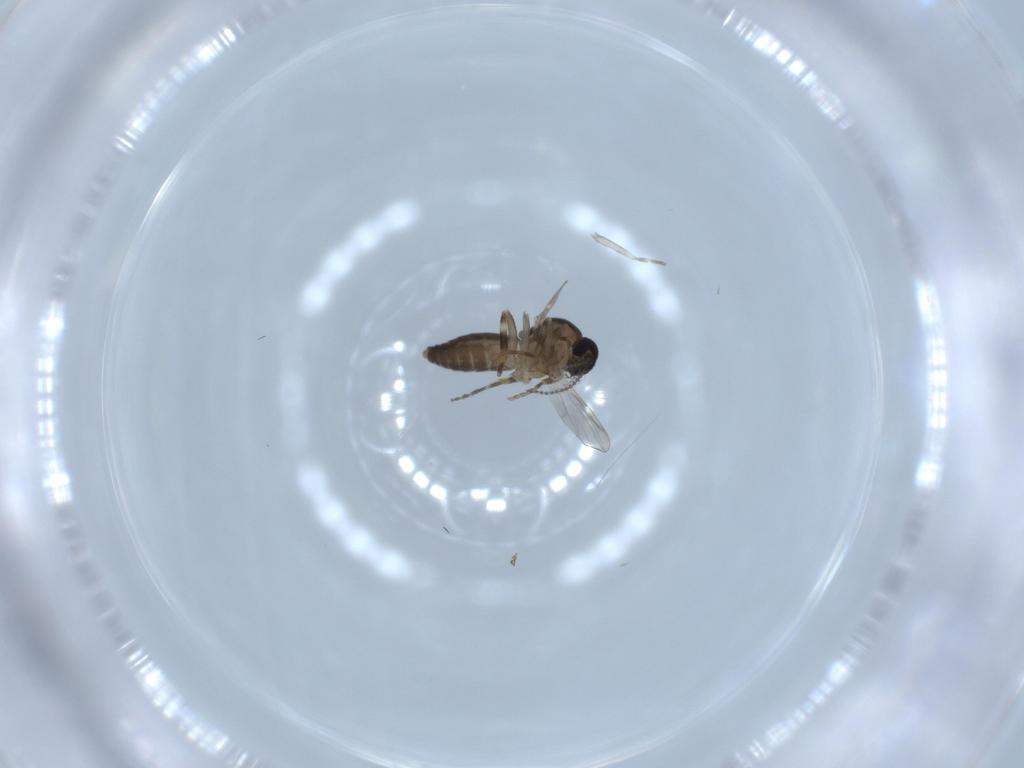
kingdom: Animalia
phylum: Arthropoda
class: Insecta
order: Diptera
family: Ceratopogonidae
